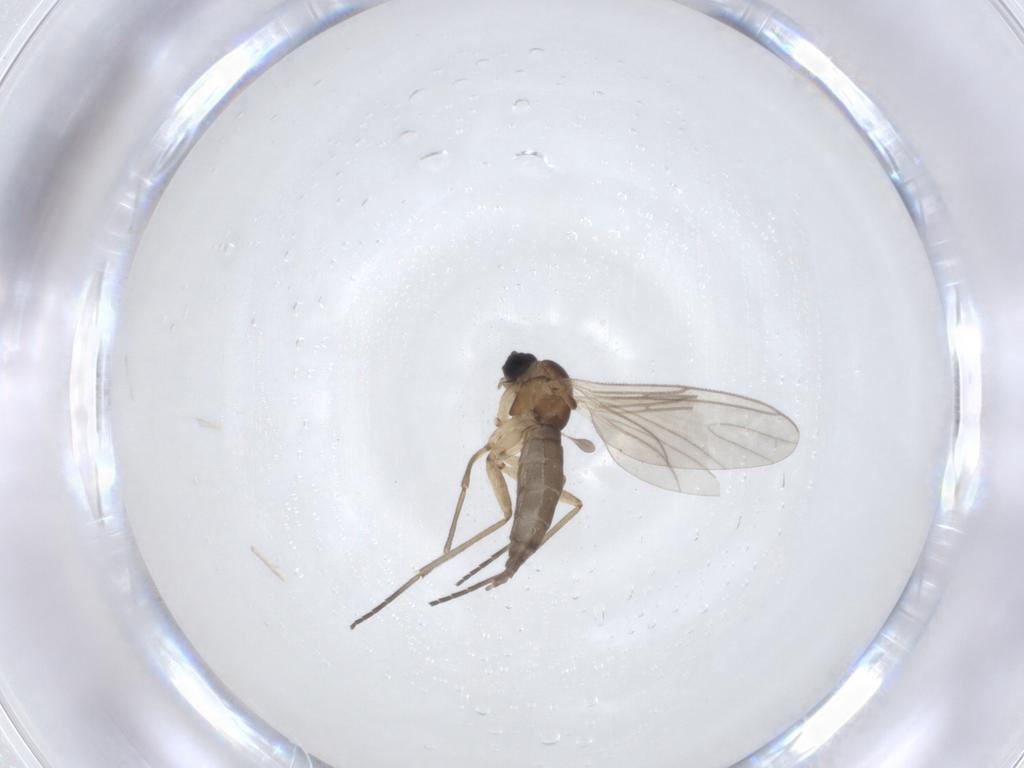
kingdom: Animalia
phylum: Arthropoda
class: Insecta
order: Diptera
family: Sciaridae
